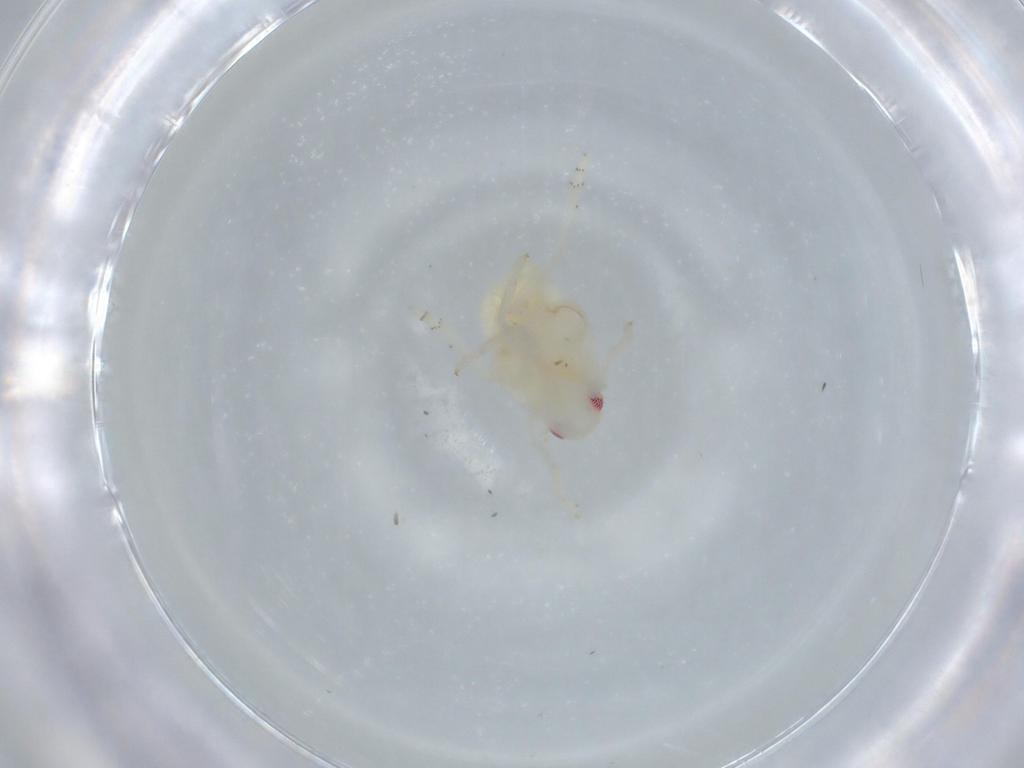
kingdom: Animalia
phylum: Arthropoda
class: Insecta
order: Hemiptera
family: Flatidae
